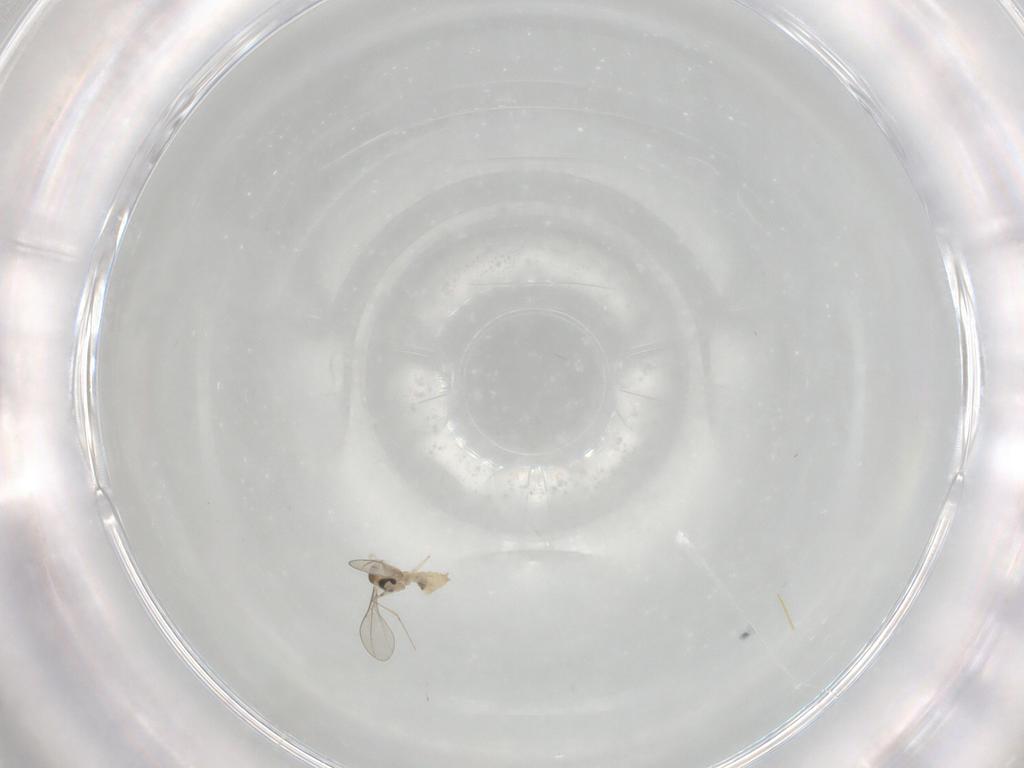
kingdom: Animalia
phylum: Arthropoda
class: Insecta
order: Diptera
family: Cecidomyiidae
